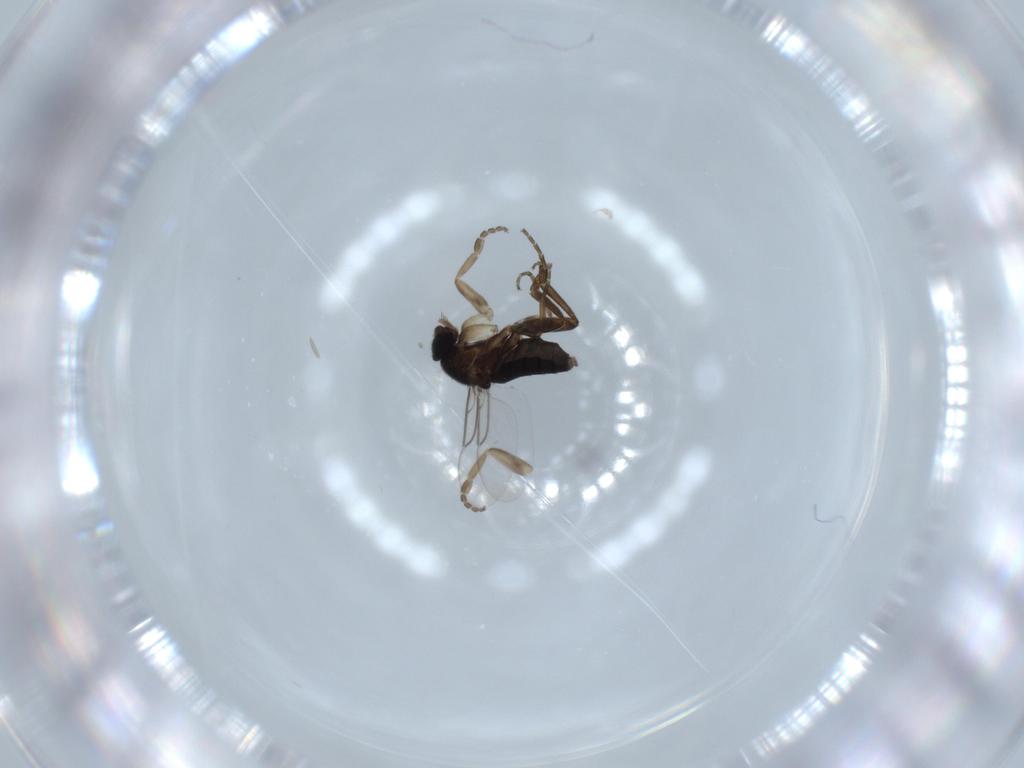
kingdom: Animalia
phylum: Arthropoda
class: Insecta
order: Diptera
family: Phoridae
